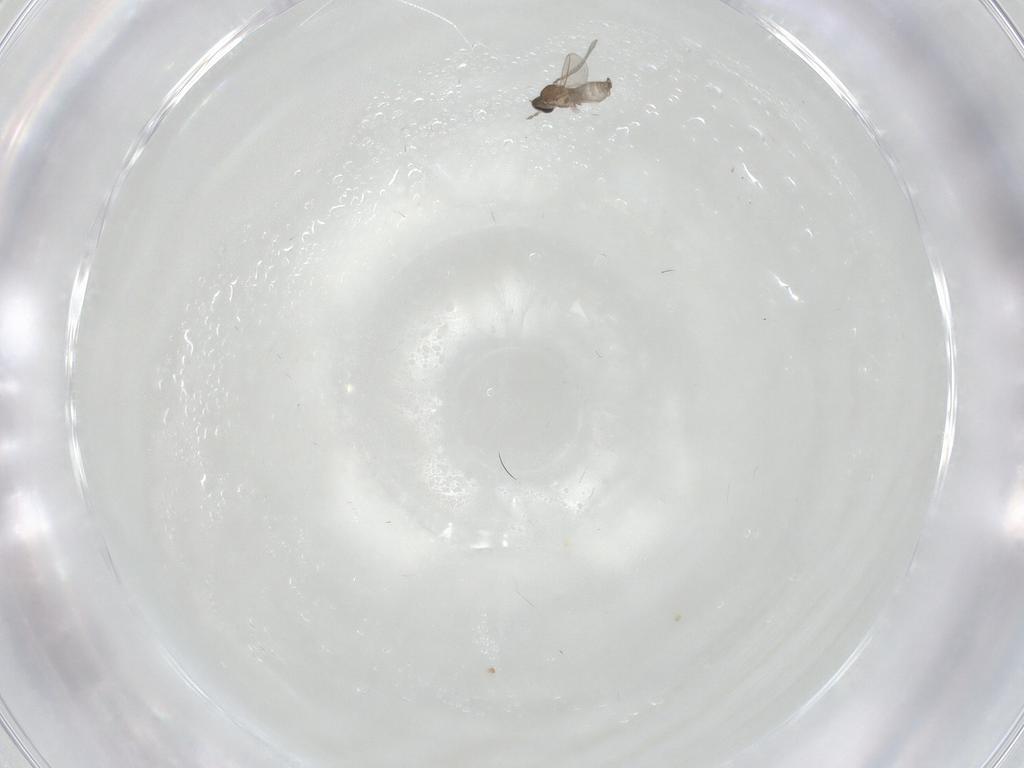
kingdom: Animalia
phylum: Arthropoda
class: Insecta
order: Diptera
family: Cecidomyiidae
